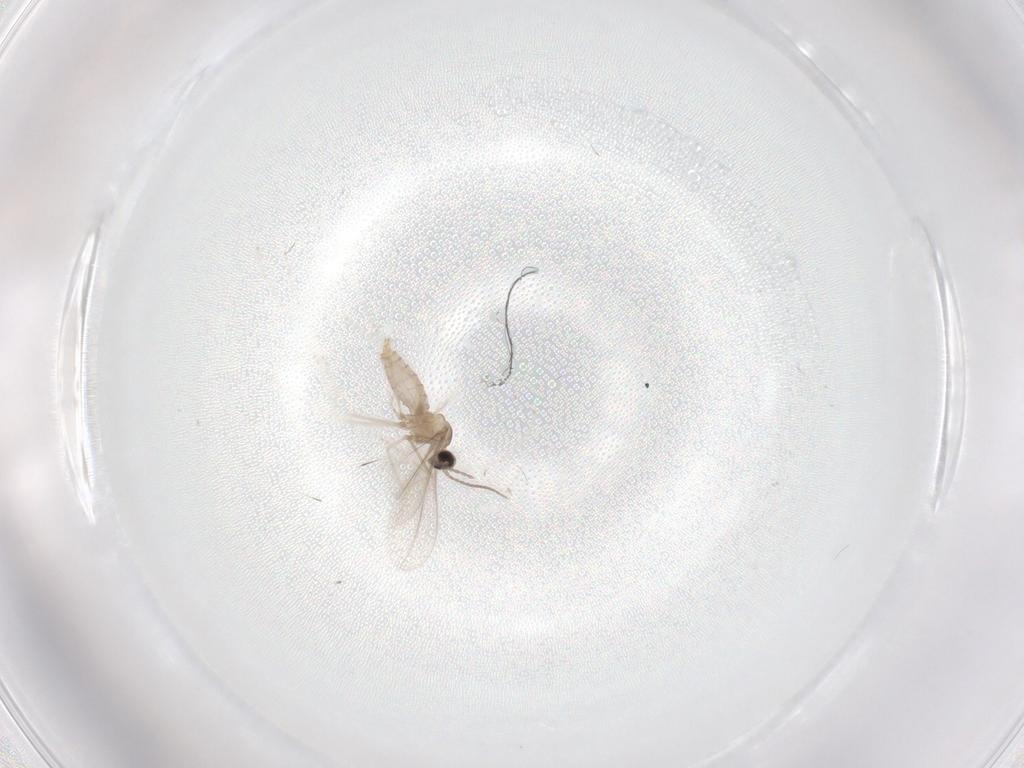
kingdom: Animalia
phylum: Arthropoda
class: Insecta
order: Diptera
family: Cecidomyiidae
